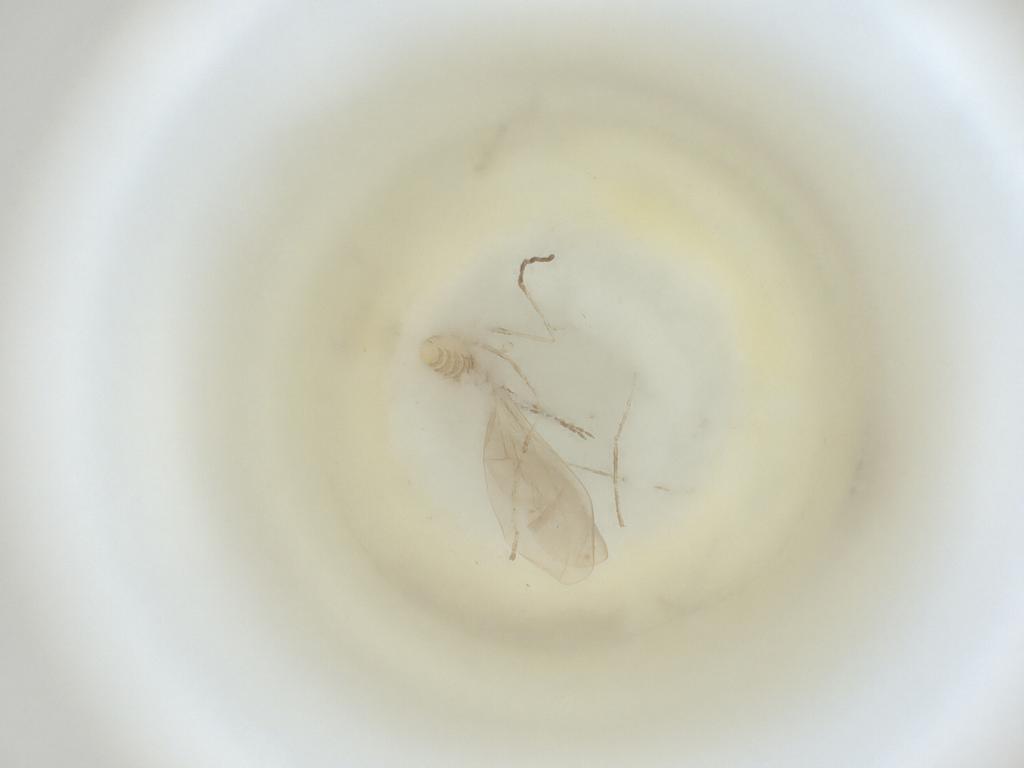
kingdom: Animalia
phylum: Arthropoda
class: Insecta
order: Diptera
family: Cecidomyiidae
